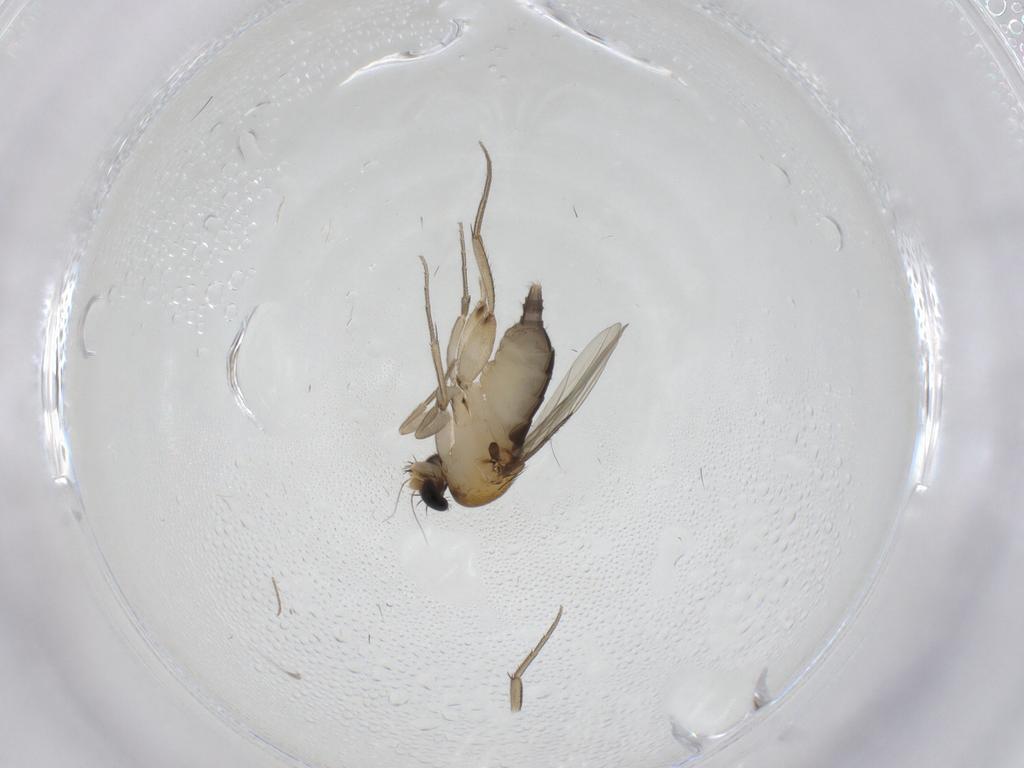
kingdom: Animalia
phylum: Arthropoda
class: Insecta
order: Diptera
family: Phoridae
